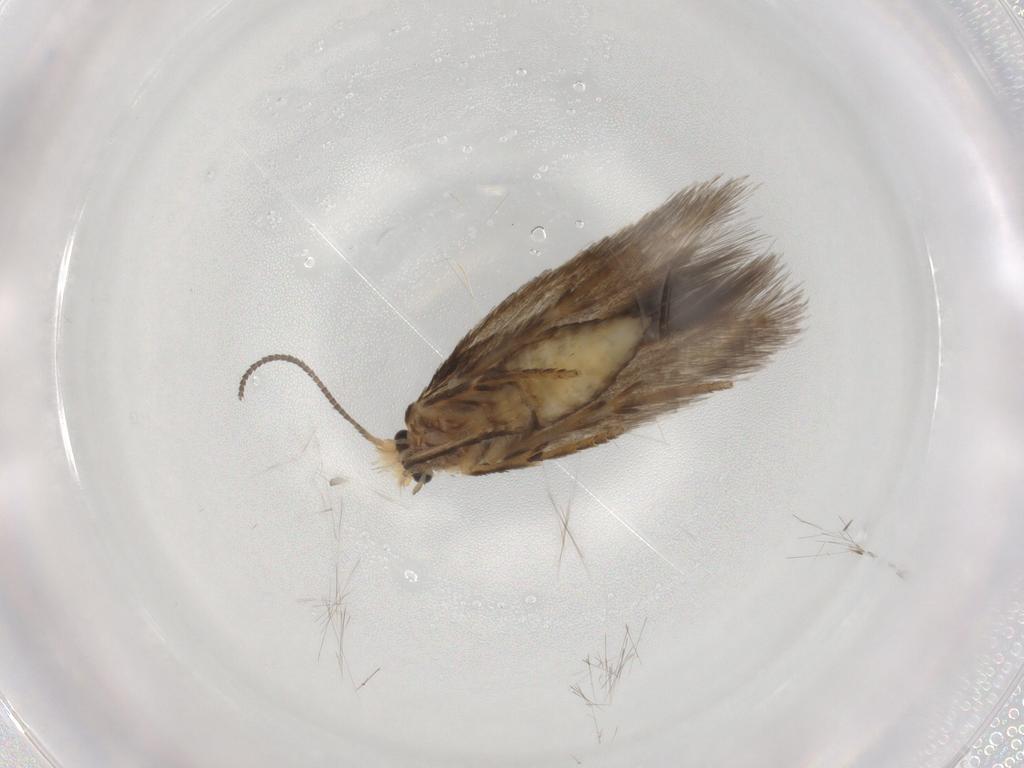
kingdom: Animalia
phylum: Arthropoda
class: Insecta
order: Lepidoptera
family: Nepticulidae
